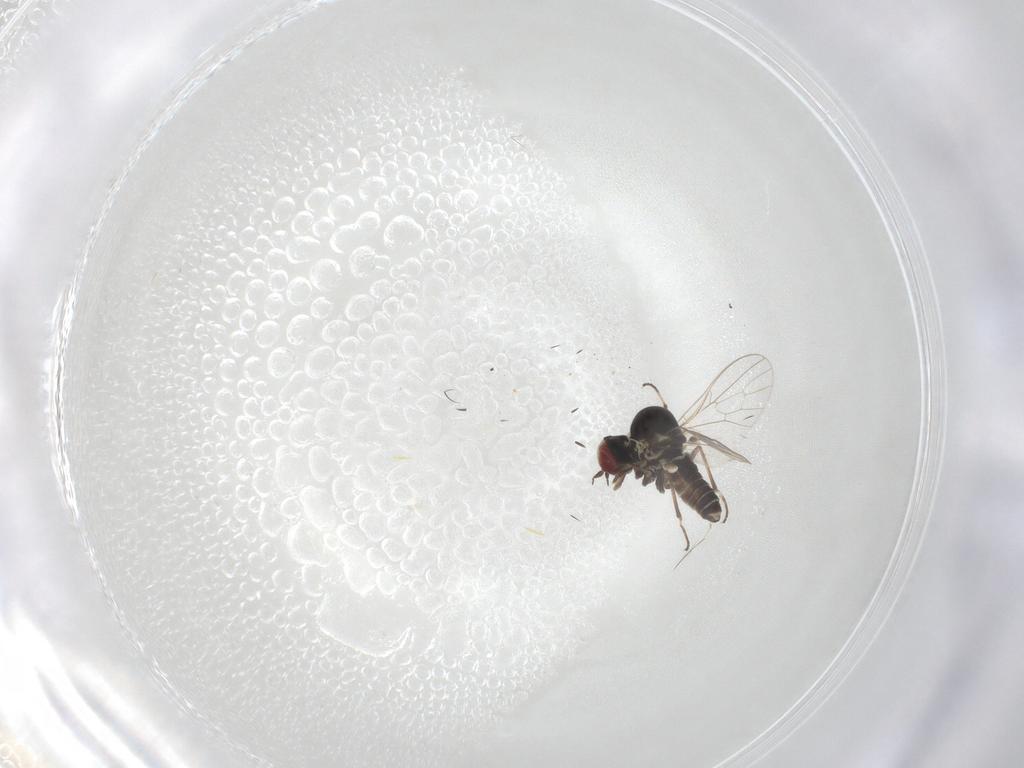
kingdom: Animalia
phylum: Arthropoda
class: Insecta
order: Diptera
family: Bombyliidae
